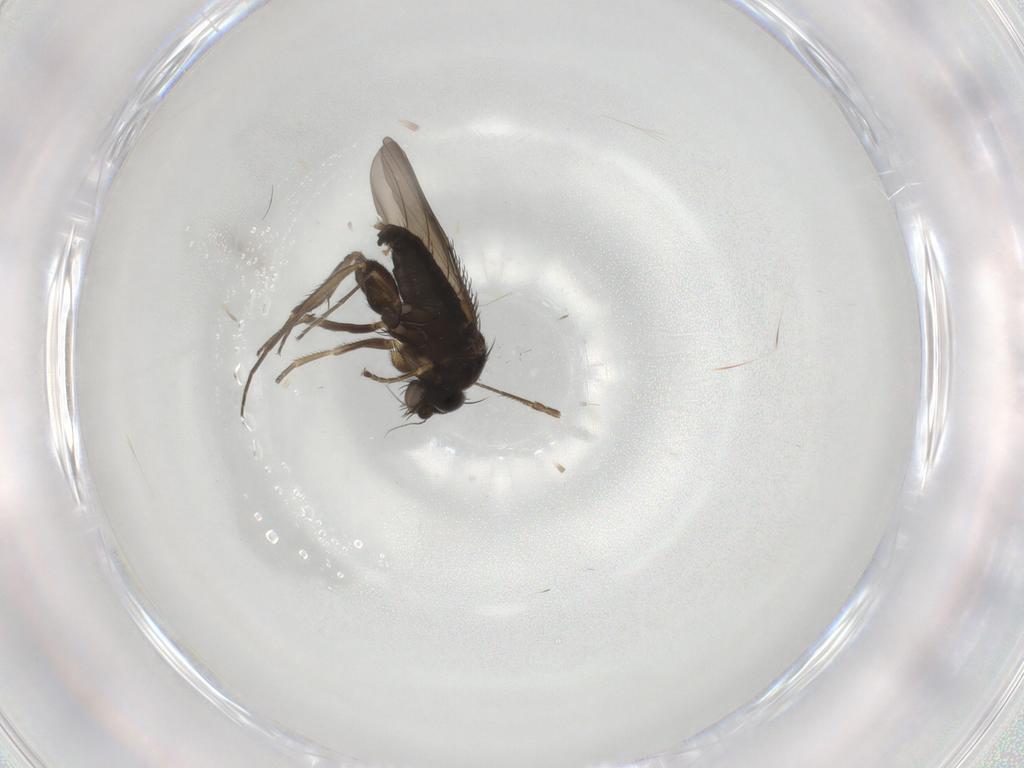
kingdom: Animalia
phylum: Arthropoda
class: Insecta
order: Diptera
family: Phoridae
